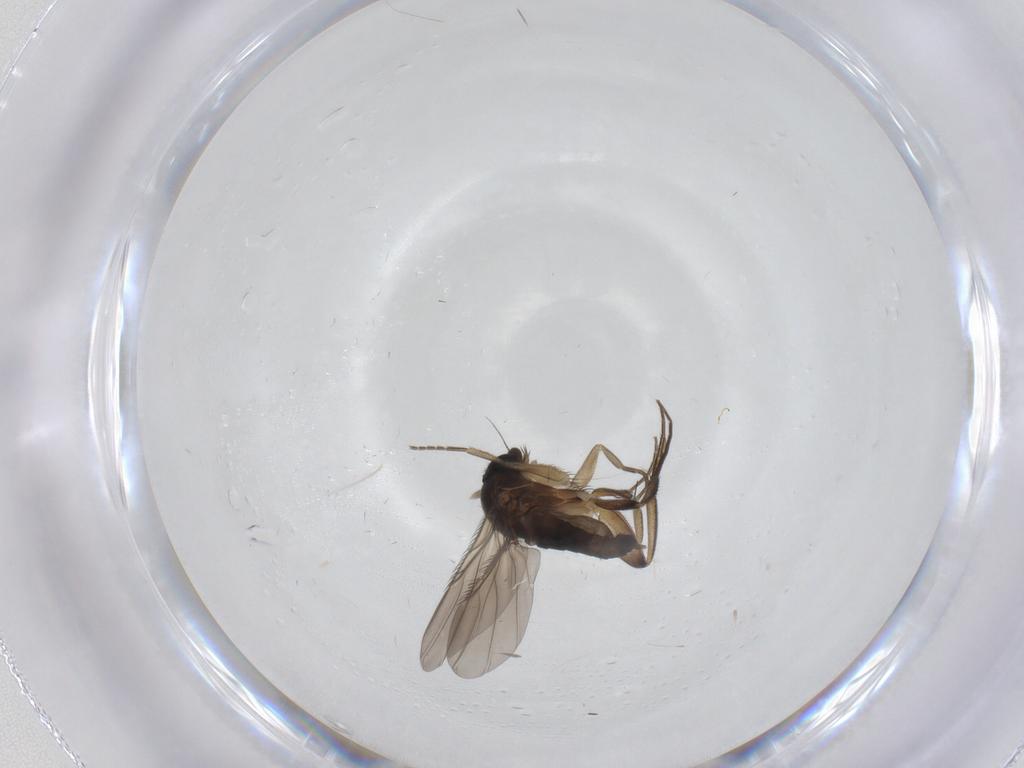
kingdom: Animalia
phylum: Arthropoda
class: Insecta
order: Diptera
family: Phoridae
